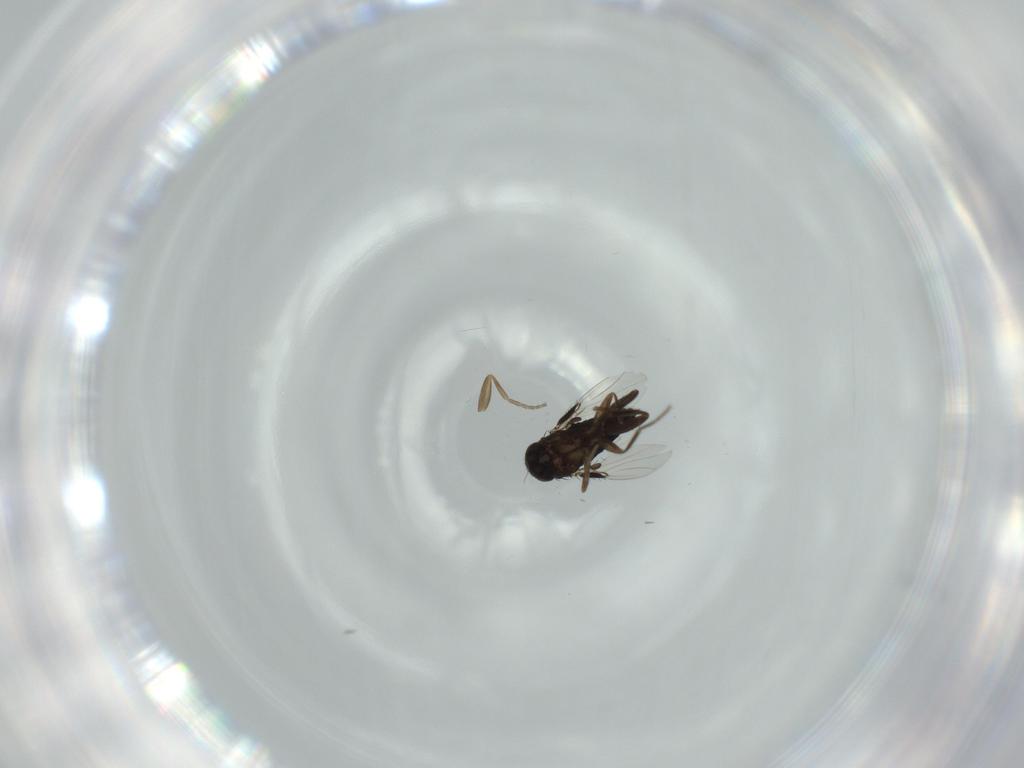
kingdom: Animalia
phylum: Arthropoda
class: Insecta
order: Diptera
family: Phoridae
